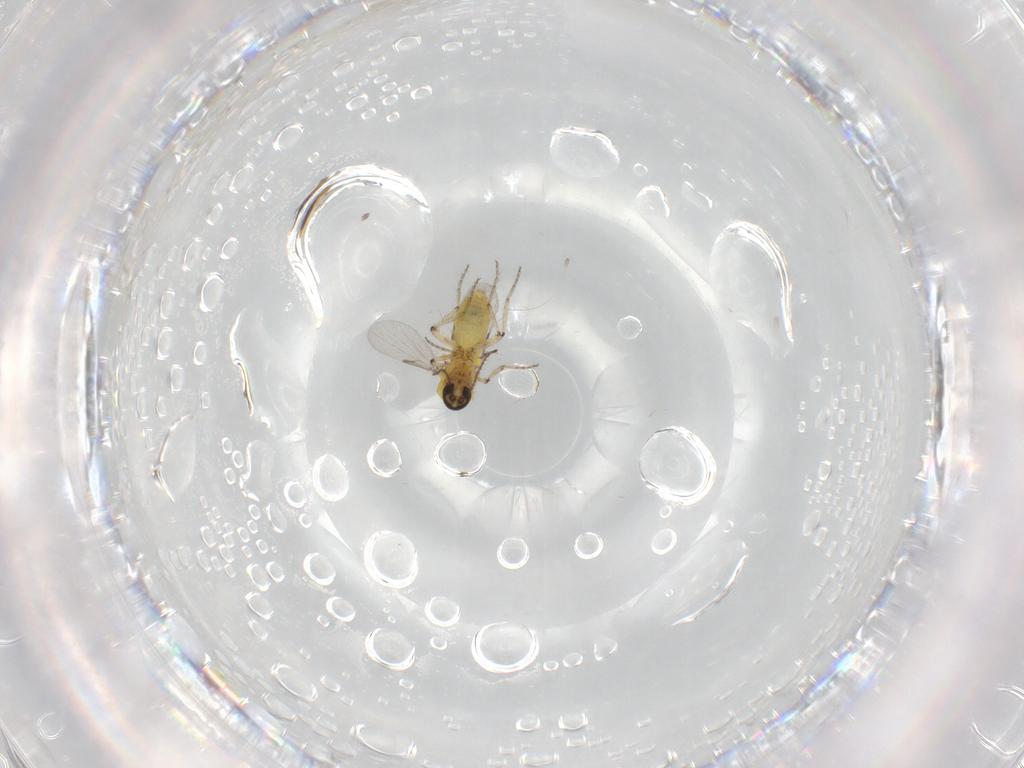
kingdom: Animalia
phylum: Arthropoda
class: Insecta
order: Diptera
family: Ceratopogonidae
